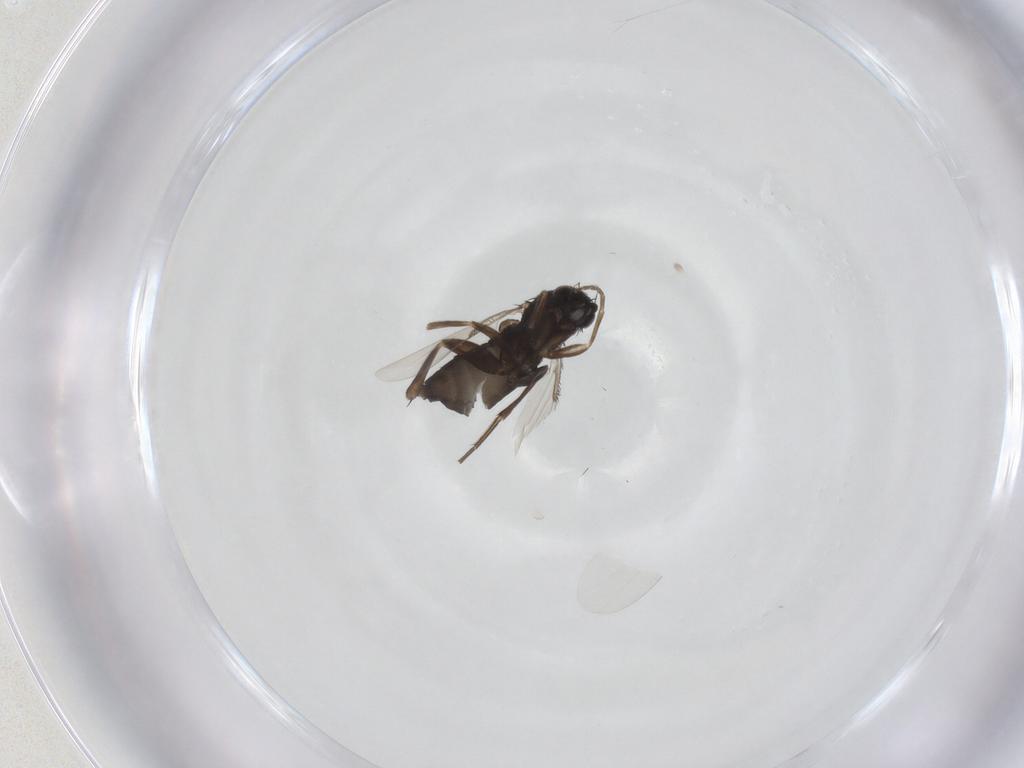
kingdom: Animalia
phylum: Arthropoda
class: Insecta
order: Diptera
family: Phoridae
